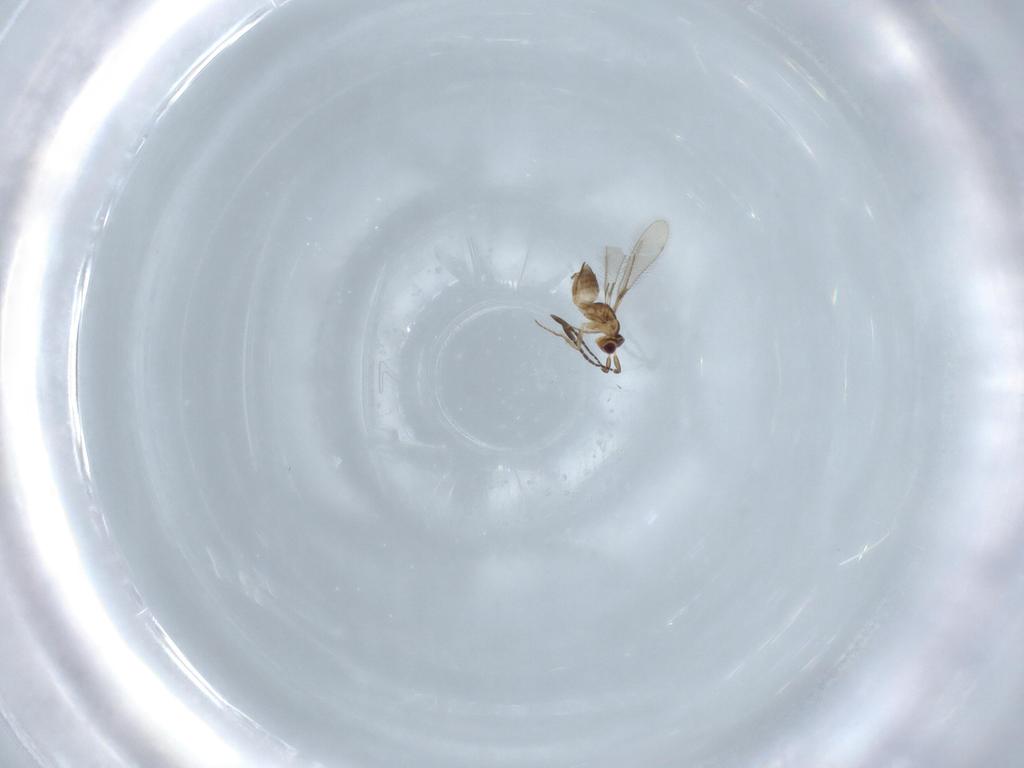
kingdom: Animalia
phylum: Arthropoda
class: Insecta
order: Hymenoptera
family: Mymaridae
